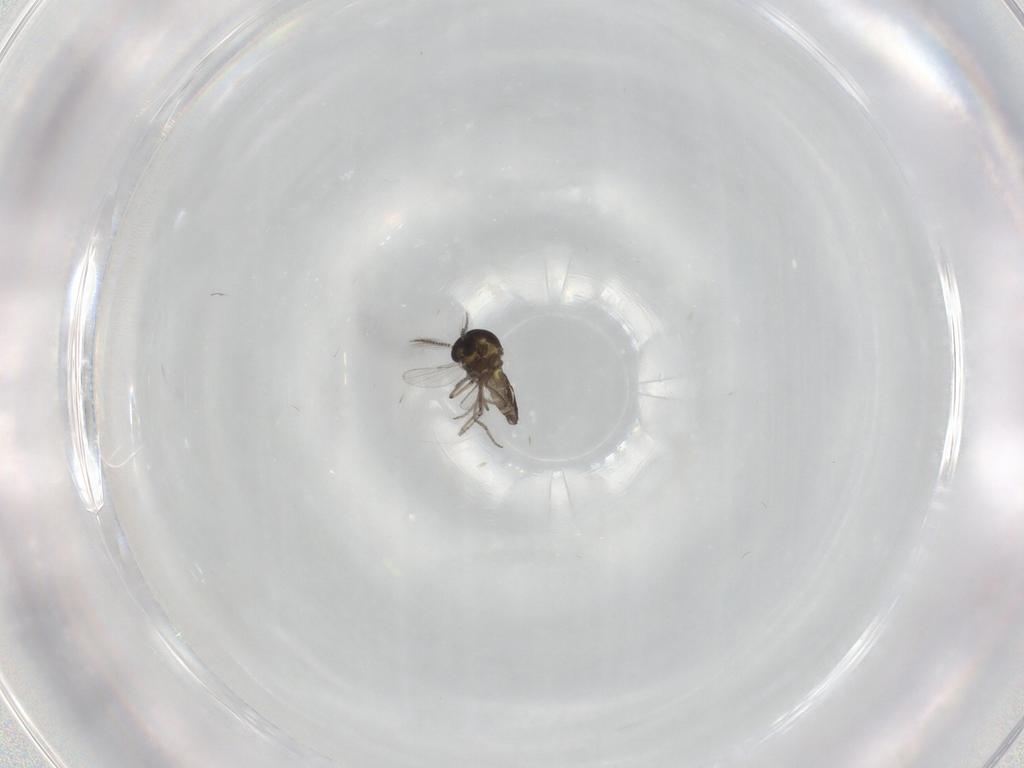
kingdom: Animalia
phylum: Arthropoda
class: Insecta
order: Diptera
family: Ceratopogonidae
